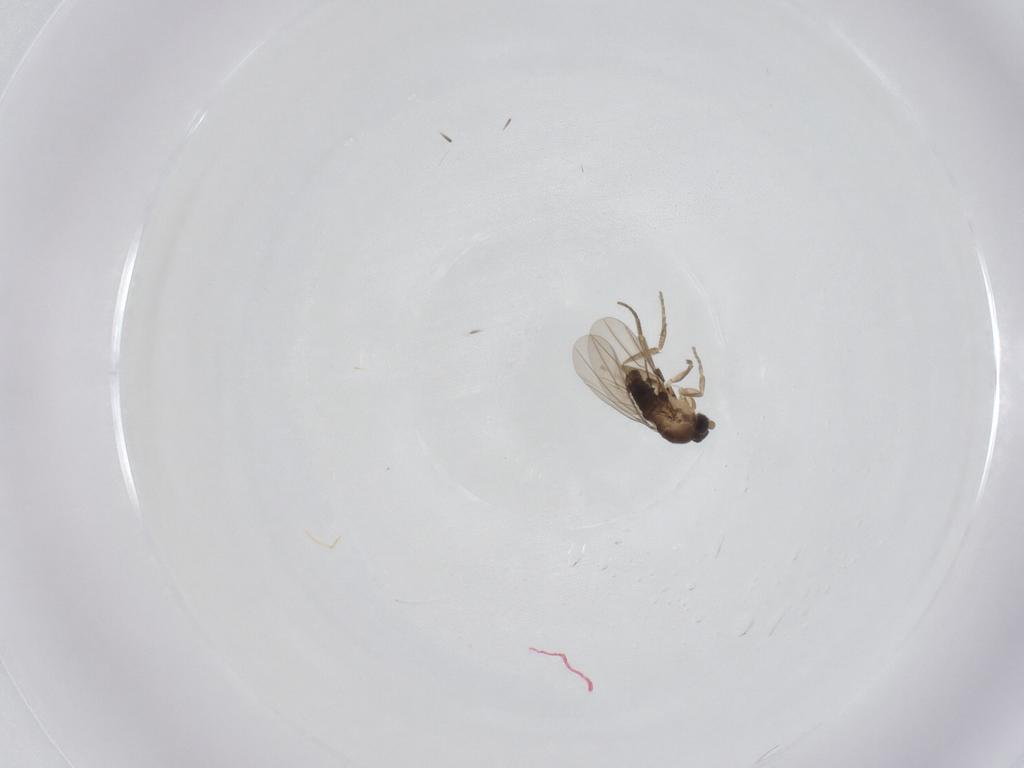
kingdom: Animalia
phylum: Arthropoda
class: Insecta
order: Diptera
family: Phoridae
